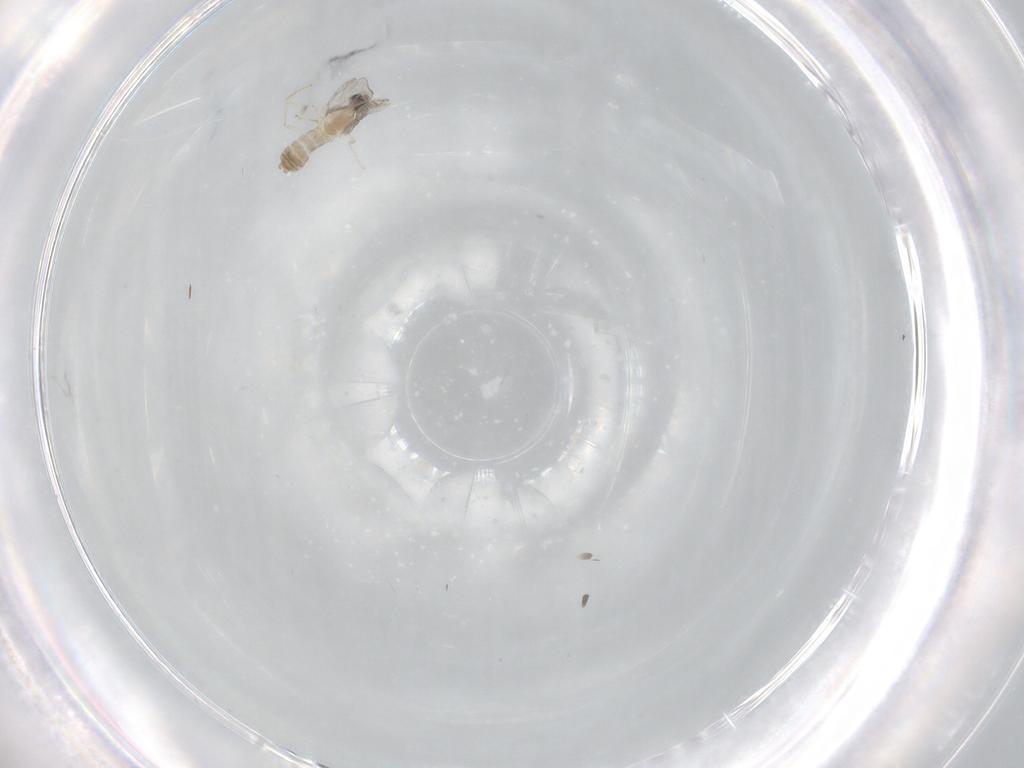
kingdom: Animalia
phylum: Arthropoda
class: Insecta
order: Diptera
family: Cecidomyiidae
